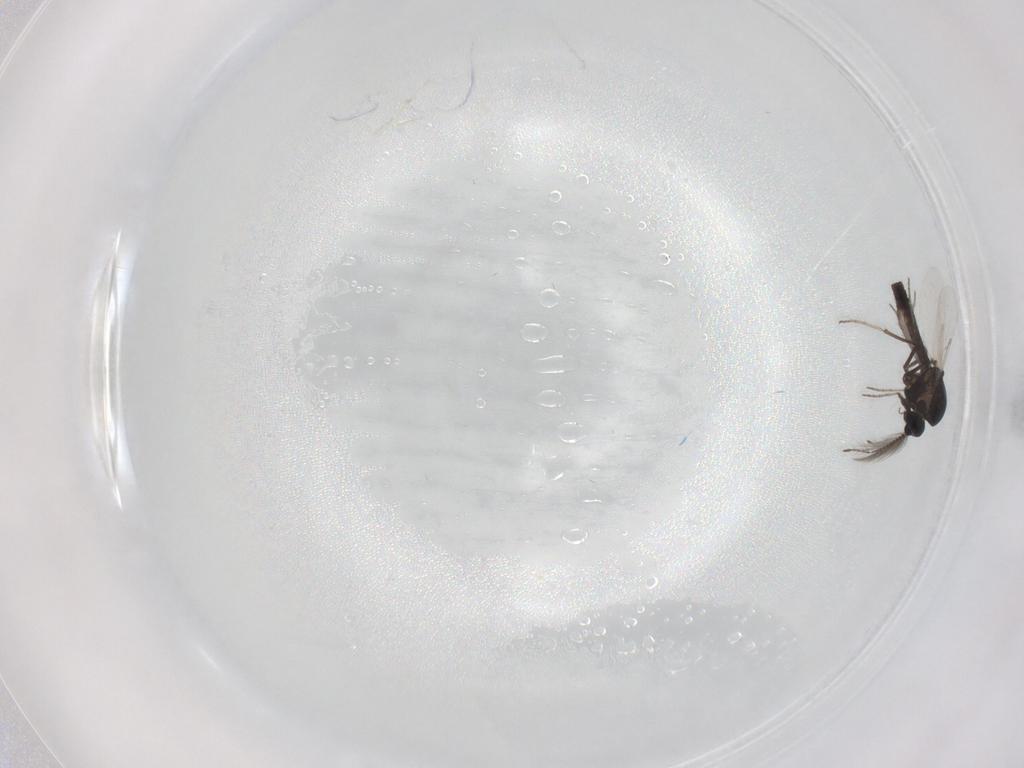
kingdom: Animalia
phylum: Arthropoda
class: Insecta
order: Diptera
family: Ceratopogonidae
